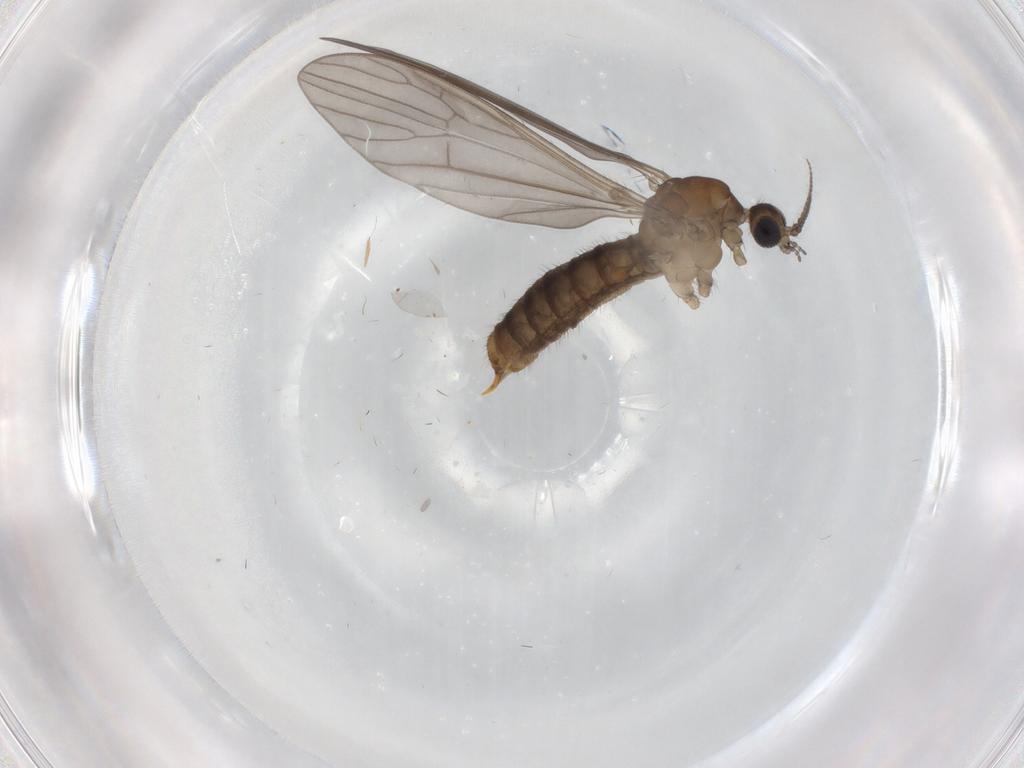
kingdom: Animalia
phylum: Arthropoda
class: Insecta
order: Diptera
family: Limoniidae
